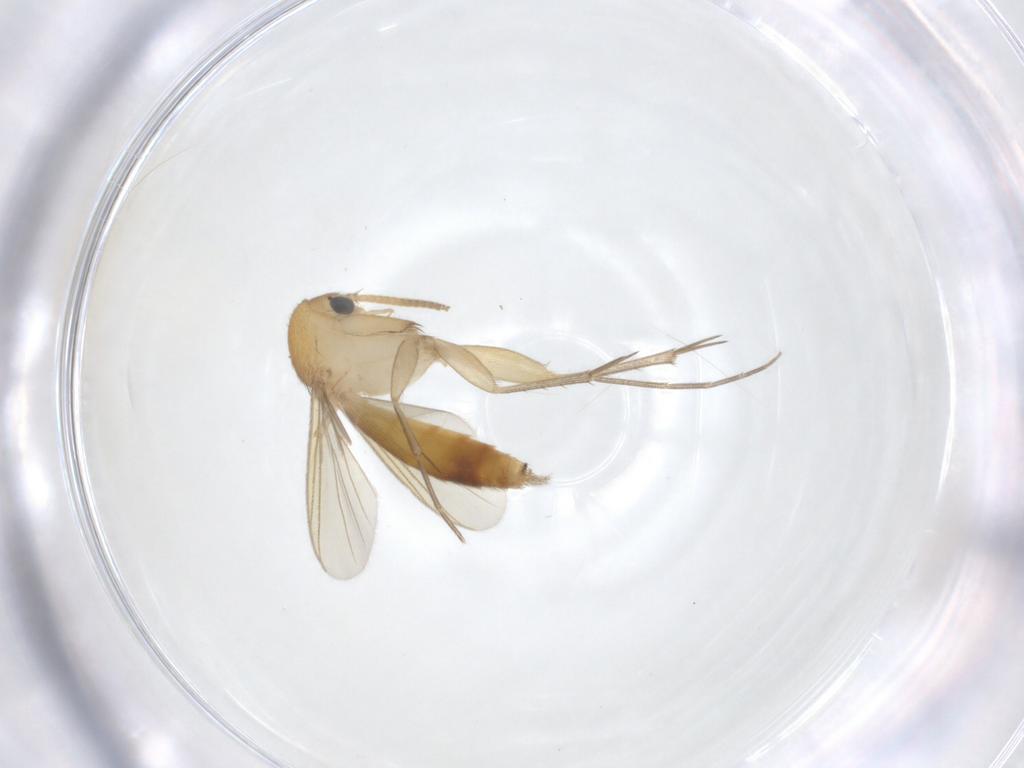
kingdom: Animalia
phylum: Arthropoda
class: Insecta
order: Diptera
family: Mycetophilidae
